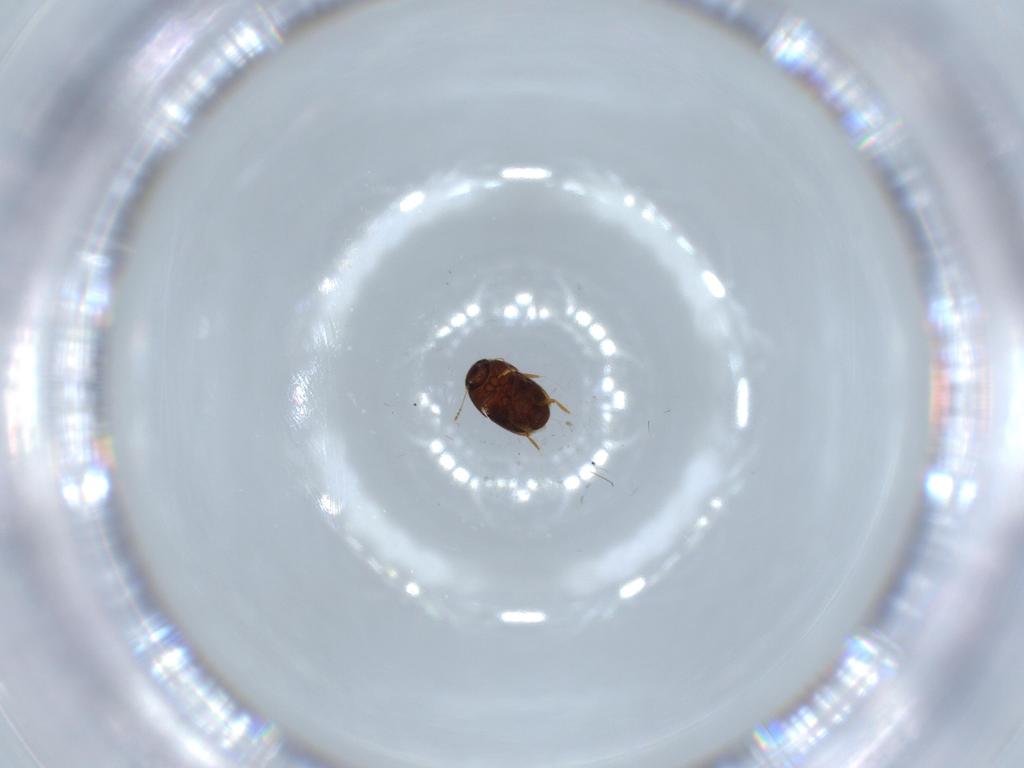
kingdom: Animalia
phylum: Arthropoda
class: Insecta
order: Coleoptera
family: Ptiliidae
